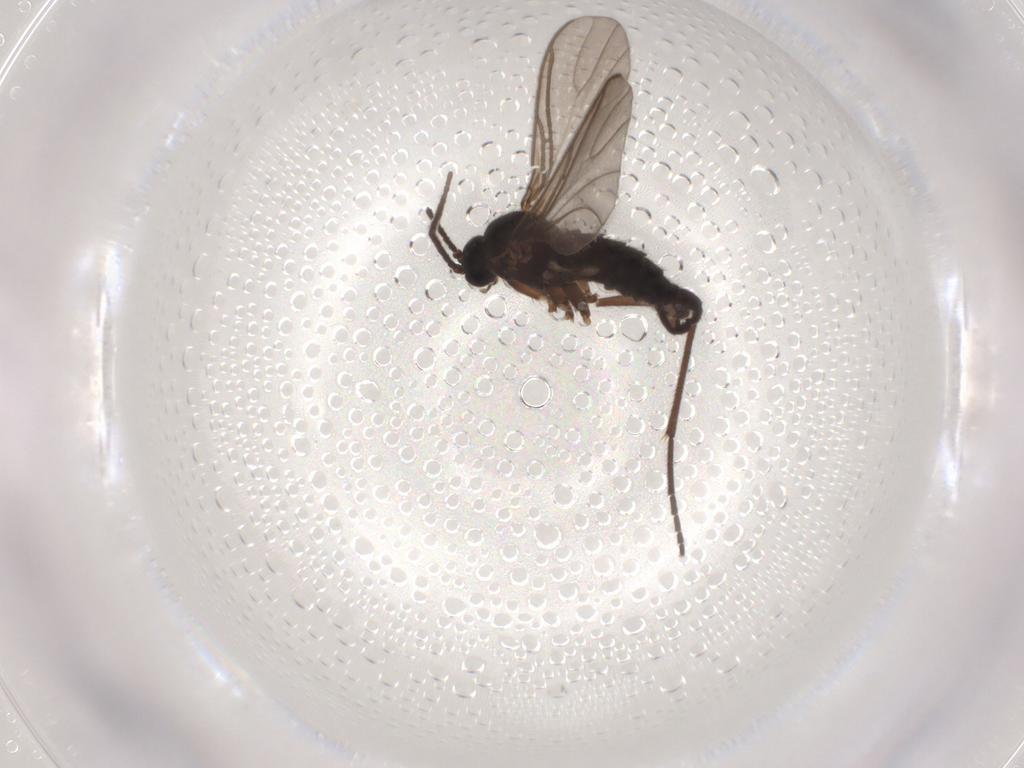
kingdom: Animalia
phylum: Arthropoda
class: Insecta
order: Diptera
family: Sciaridae
